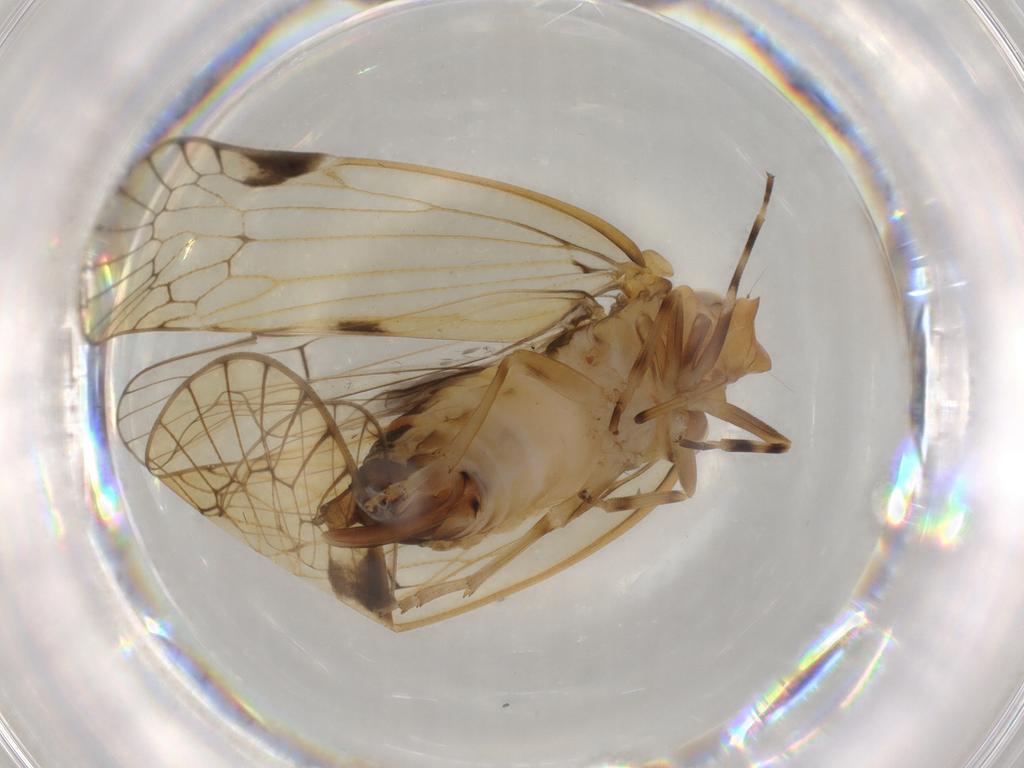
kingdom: Animalia
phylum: Arthropoda
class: Insecta
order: Hemiptera
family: Cixiidae
